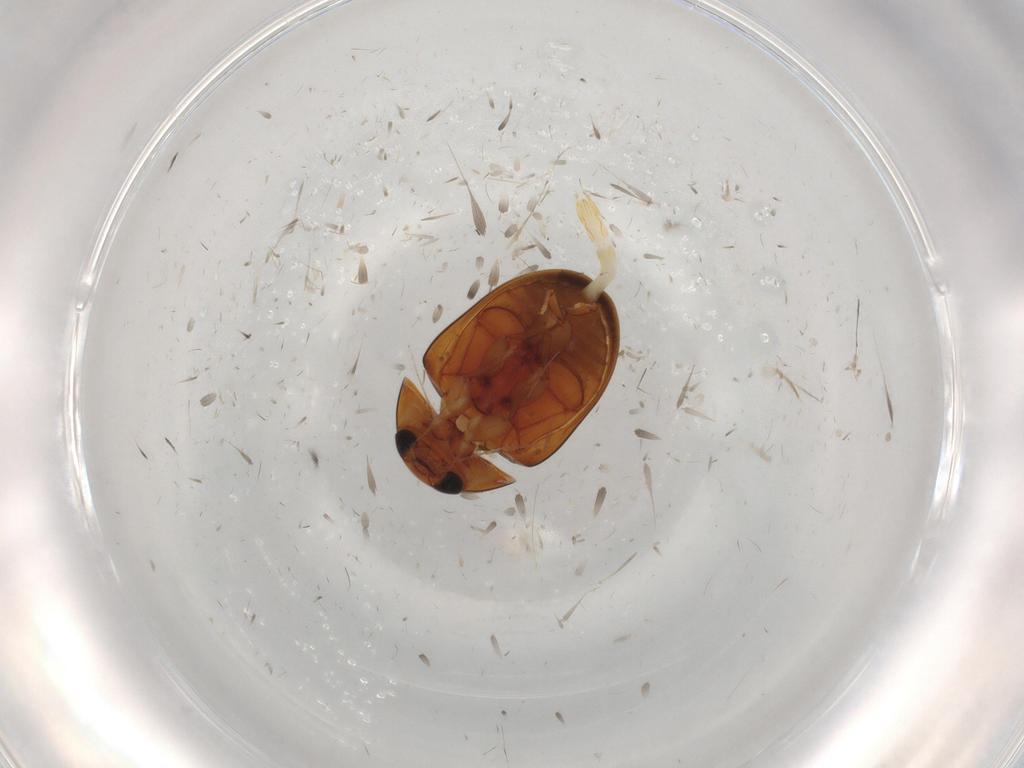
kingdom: Animalia
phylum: Arthropoda
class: Insecta
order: Coleoptera
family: Phalacridae
